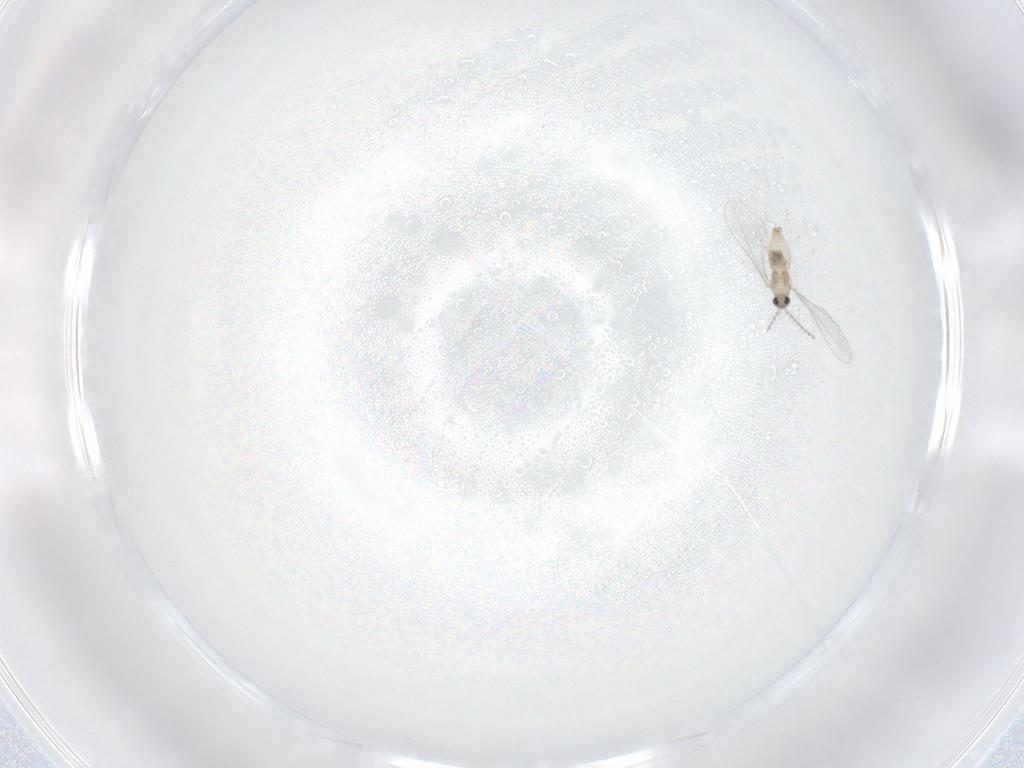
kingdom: Animalia
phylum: Arthropoda
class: Insecta
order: Diptera
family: Cecidomyiidae
